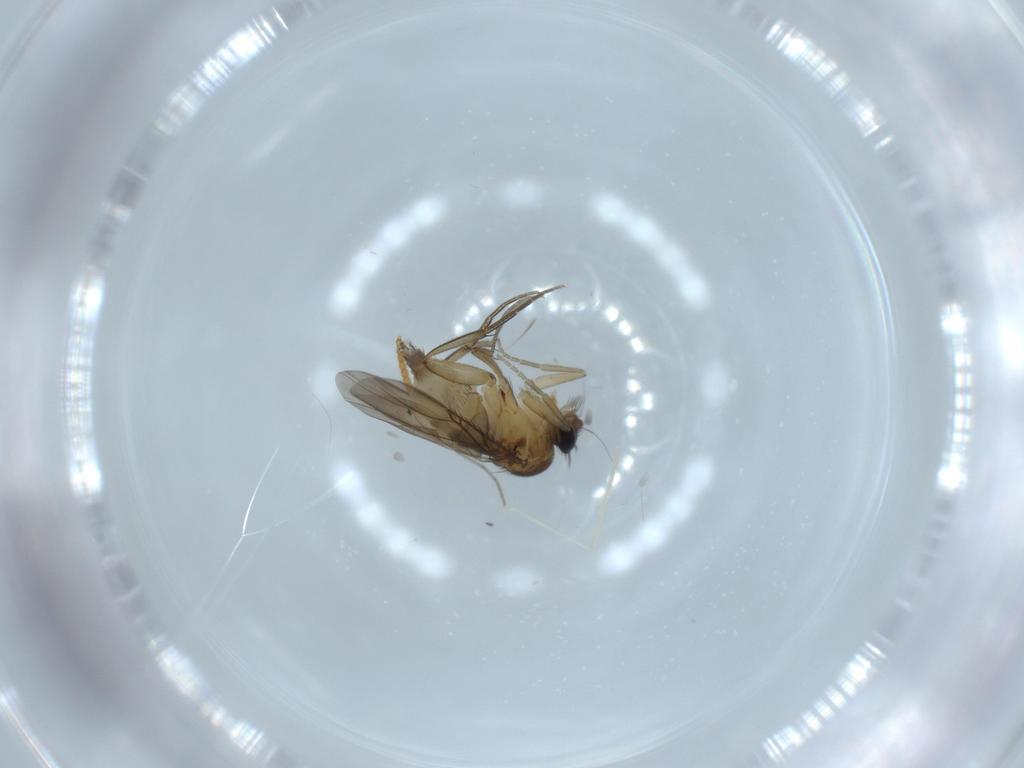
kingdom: Animalia
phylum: Arthropoda
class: Insecta
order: Diptera
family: Phoridae
